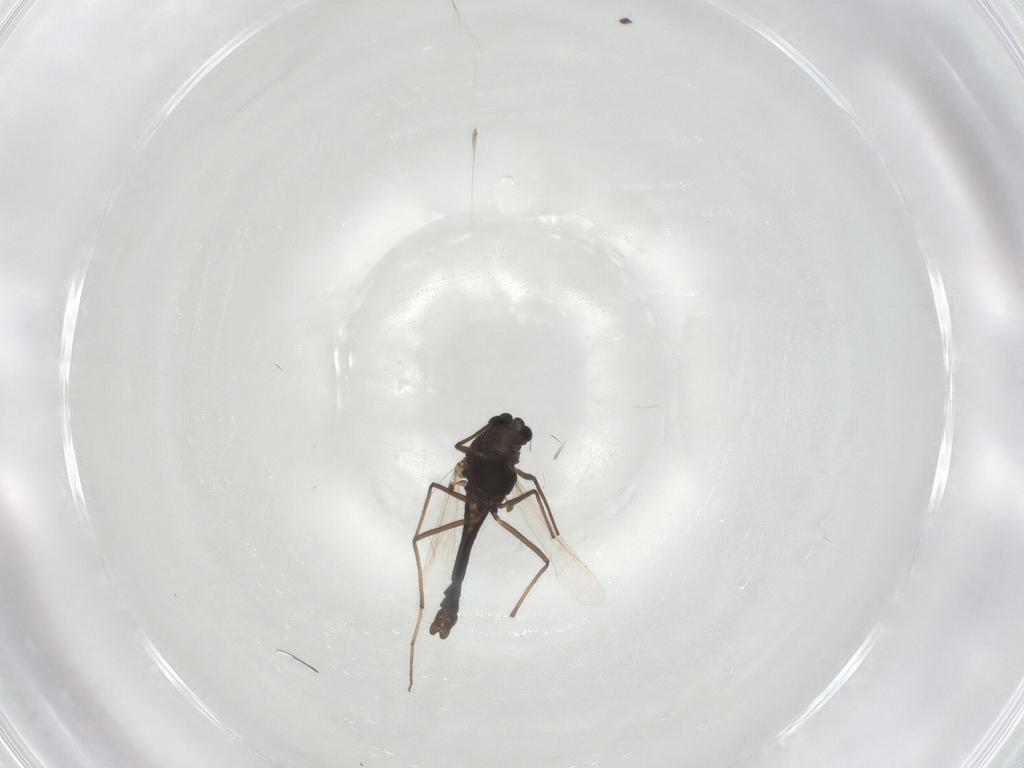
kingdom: Animalia
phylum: Arthropoda
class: Insecta
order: Diptera
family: Chironomidae
